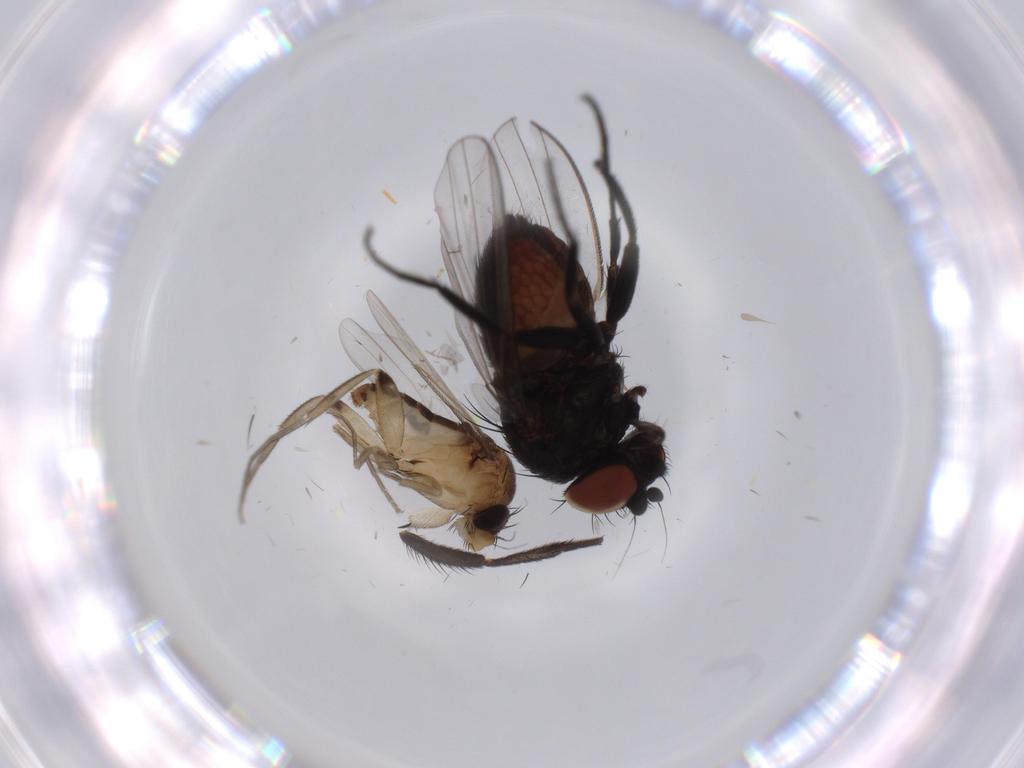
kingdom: Animalia
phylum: Arthropoda
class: Insecta
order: Diptera
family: Milichiidae
